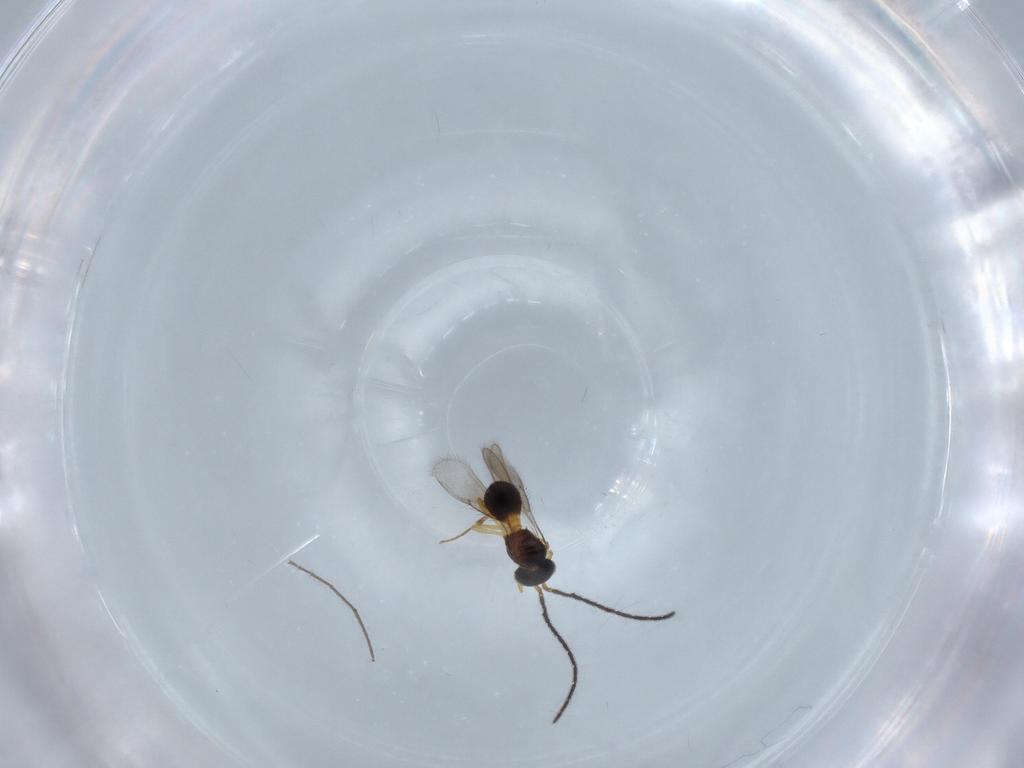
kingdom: Animalia
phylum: Arthropoda
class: Insecta
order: Hymenoptera
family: Scelionidae
